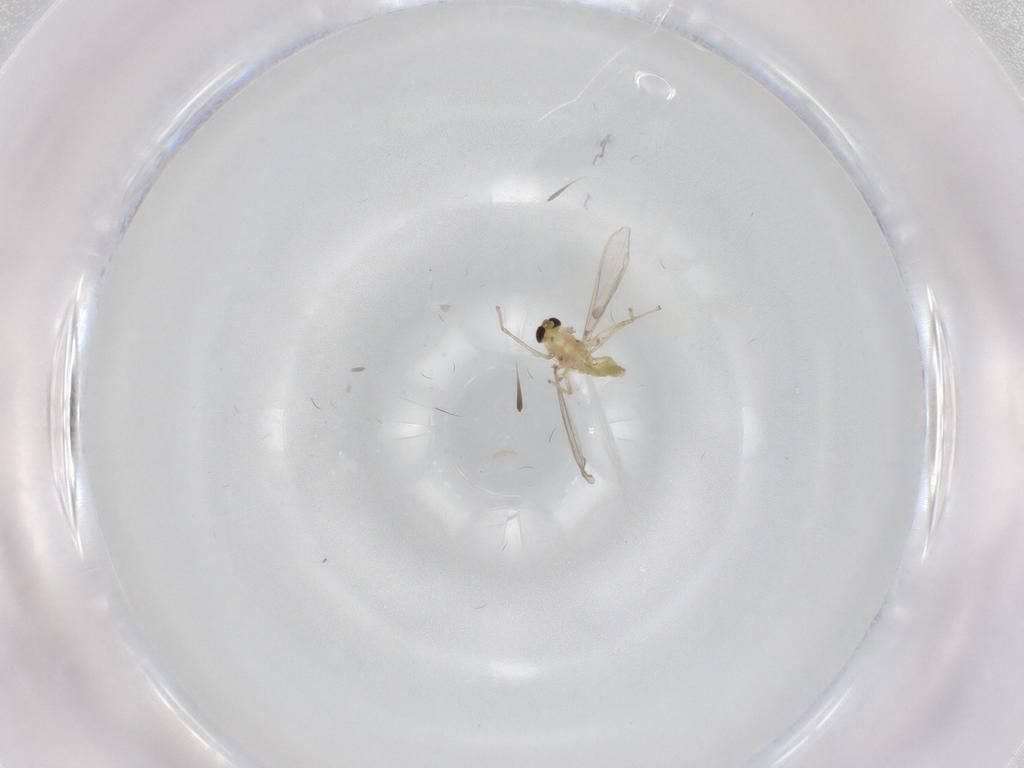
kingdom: Animalia
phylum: Arthropoda
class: Insecta
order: Diptera
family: Chironomidae
